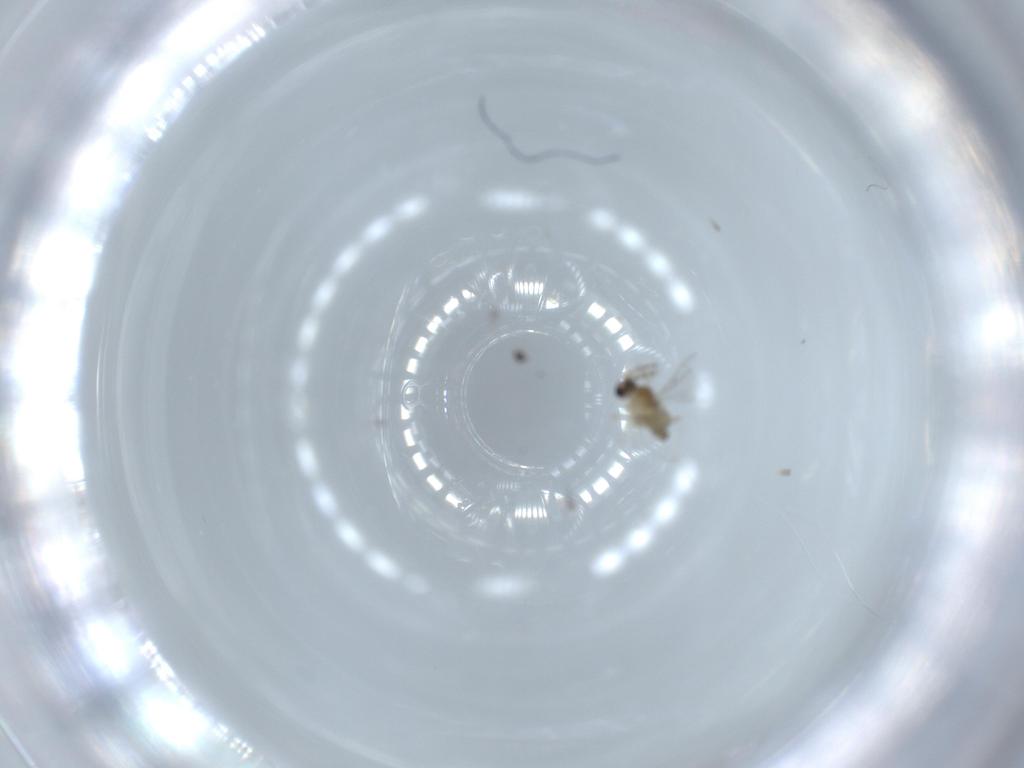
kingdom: Animalia
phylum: Arthropoda
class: Insecta
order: Diptera
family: Cecidomyiidae
